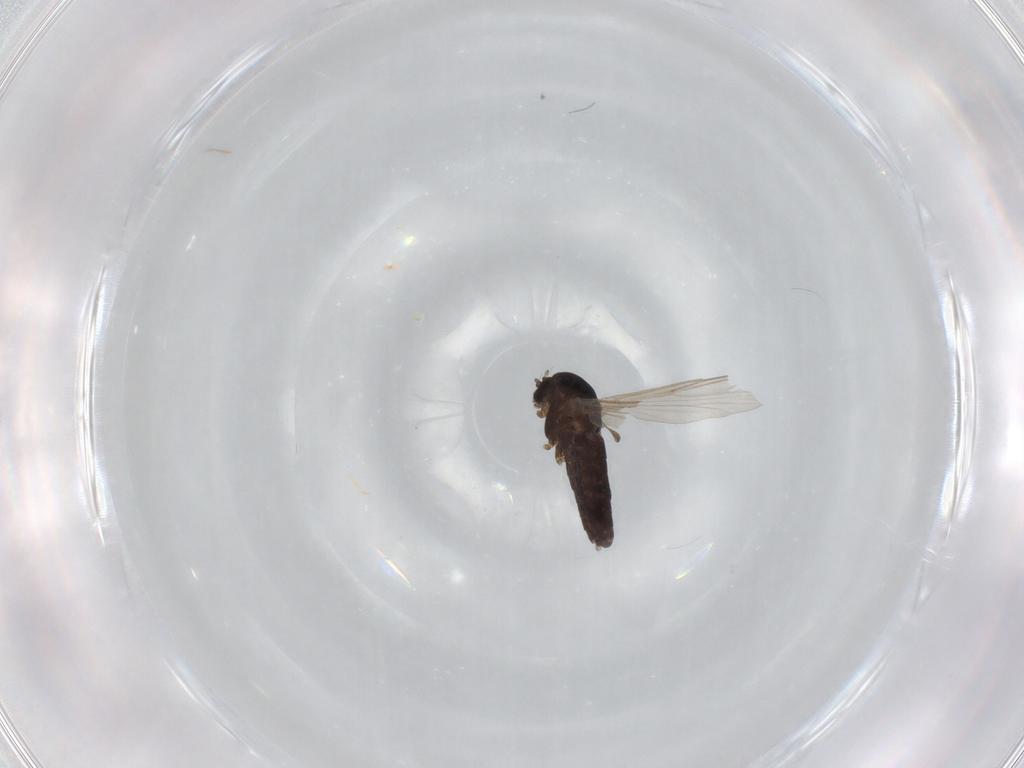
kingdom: Animalia
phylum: Arthropoda
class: Insecta
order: Diptera
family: Chironomidae
